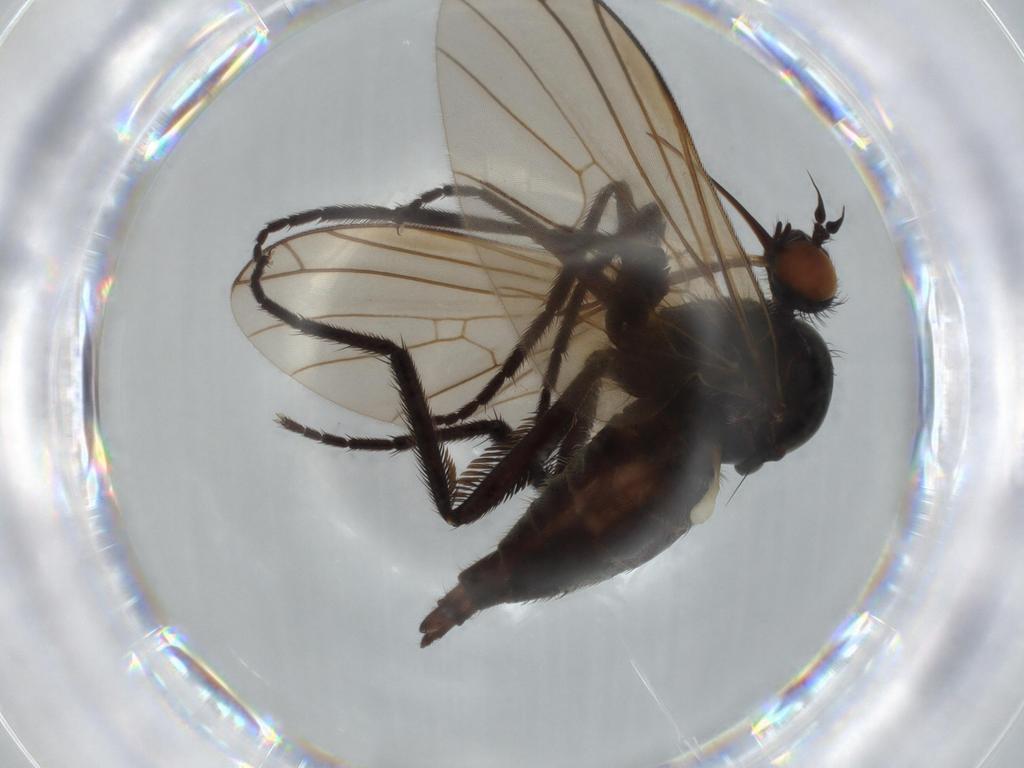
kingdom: Animalia
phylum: Arthropoda
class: Insecta
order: Diptera
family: Empididae
